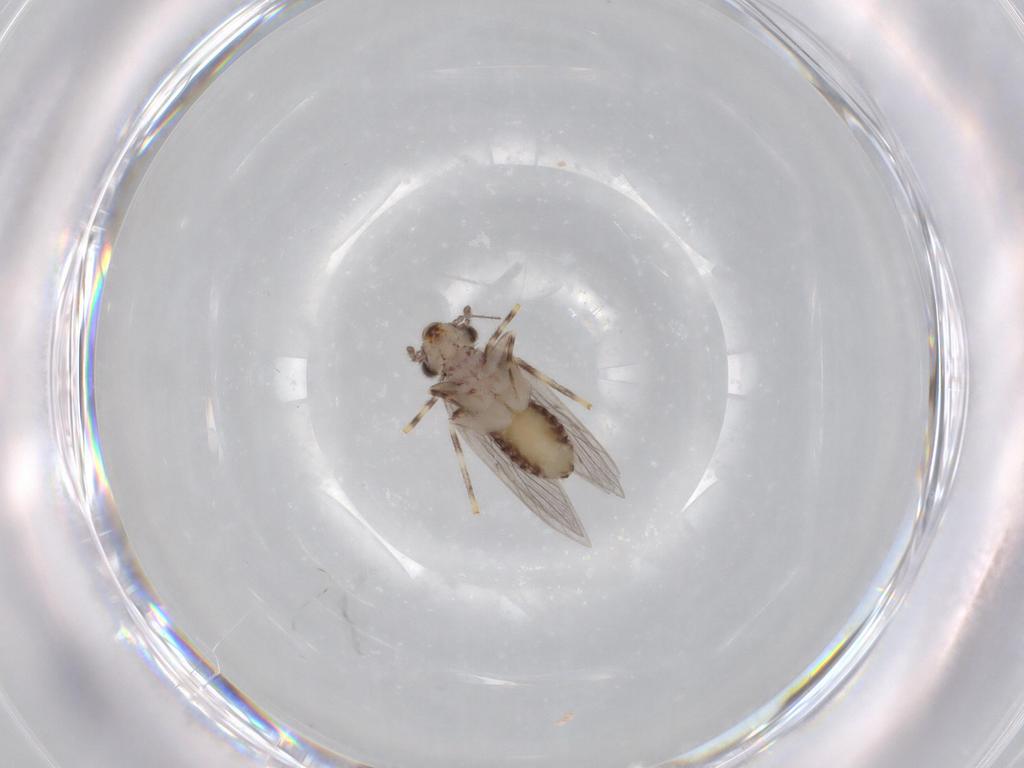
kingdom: Animalia
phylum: Arthropoda
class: Insecta
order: Psocodea
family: Lepidopsocidae
